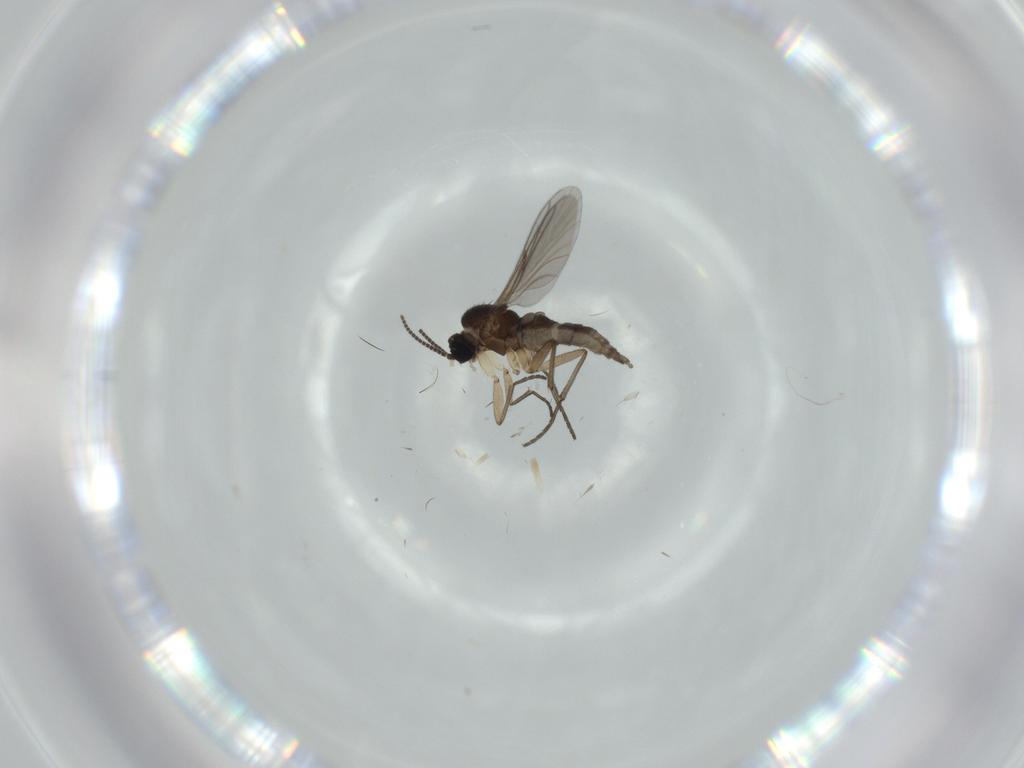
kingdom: Animalia
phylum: Arthropoda
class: Insecta
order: Diptera
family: Sciaridae
